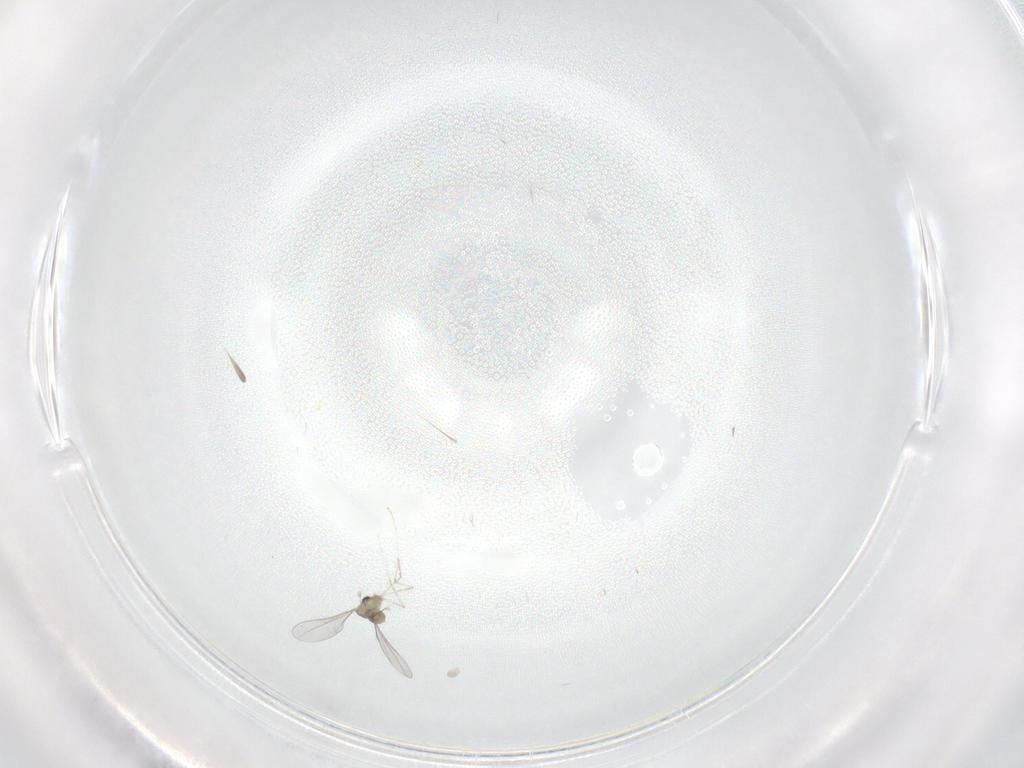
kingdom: Animalia
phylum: Arthropoda
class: Insecta
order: Diptera
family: Cecidomyiidae
